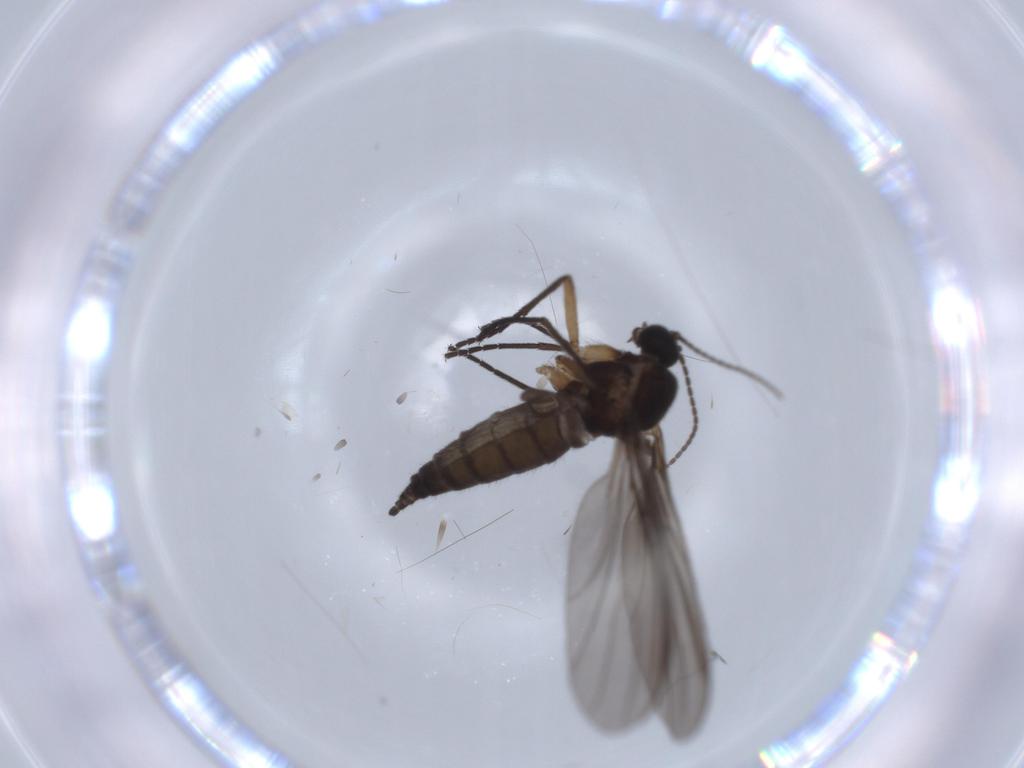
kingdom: Animalia
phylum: Arthropoda
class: Insecta
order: Diptera
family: Sciaridae
